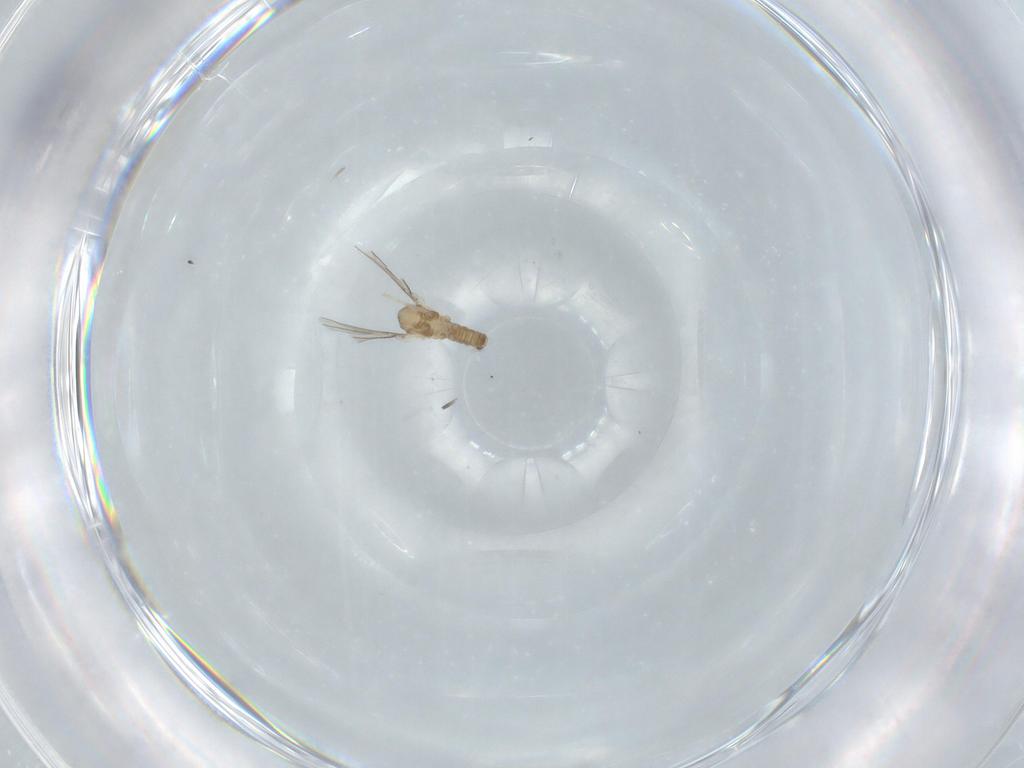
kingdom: Animalia
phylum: Arthropoda
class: Insecta
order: Diptera
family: Cecidomyiidae
